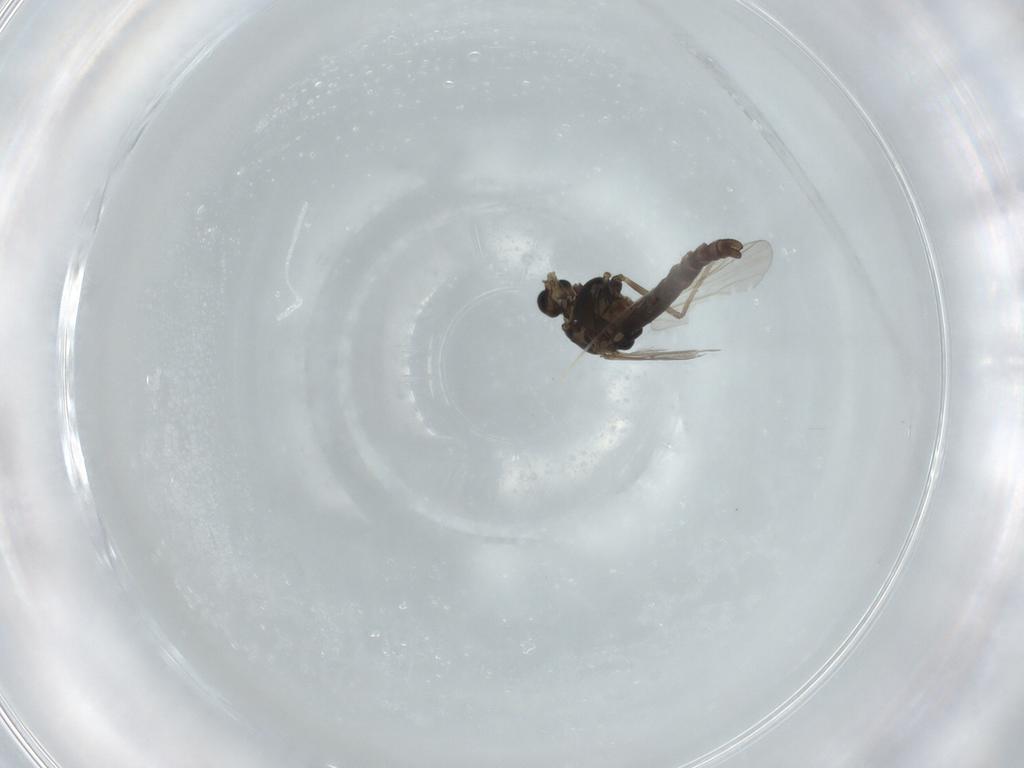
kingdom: Animalia
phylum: Arthropoda
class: Insecta
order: Diptera
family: Chironomidae
